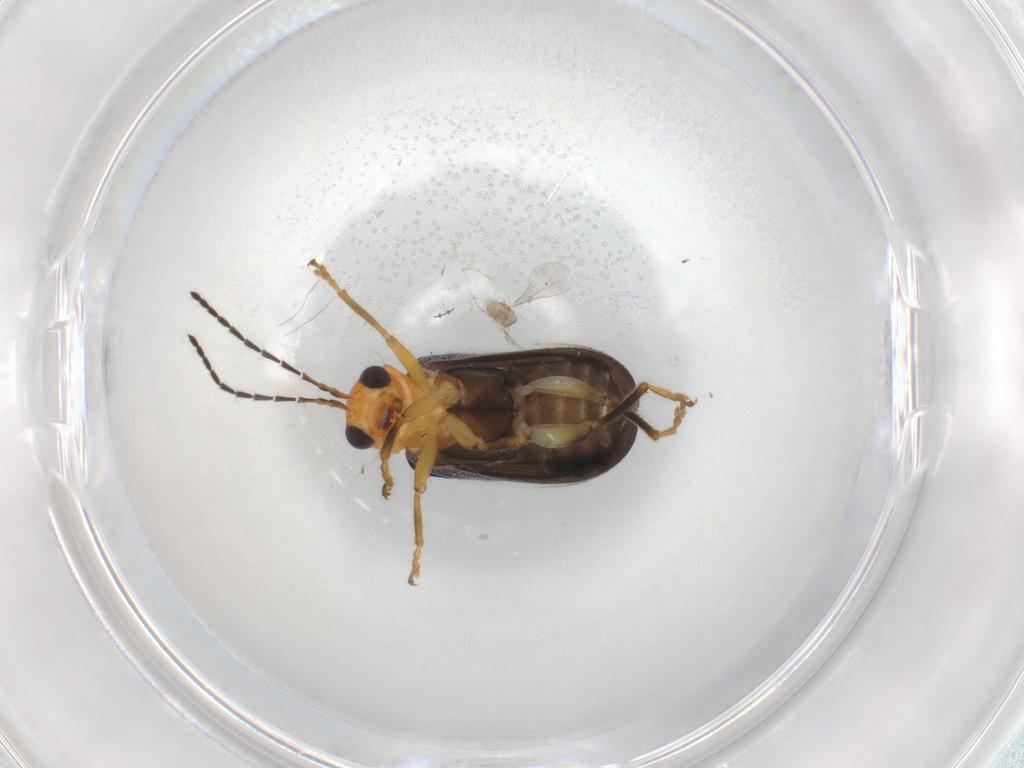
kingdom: Animalia
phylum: Arthropoda
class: Insecta
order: Coleoptera
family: Chrysomelidae
